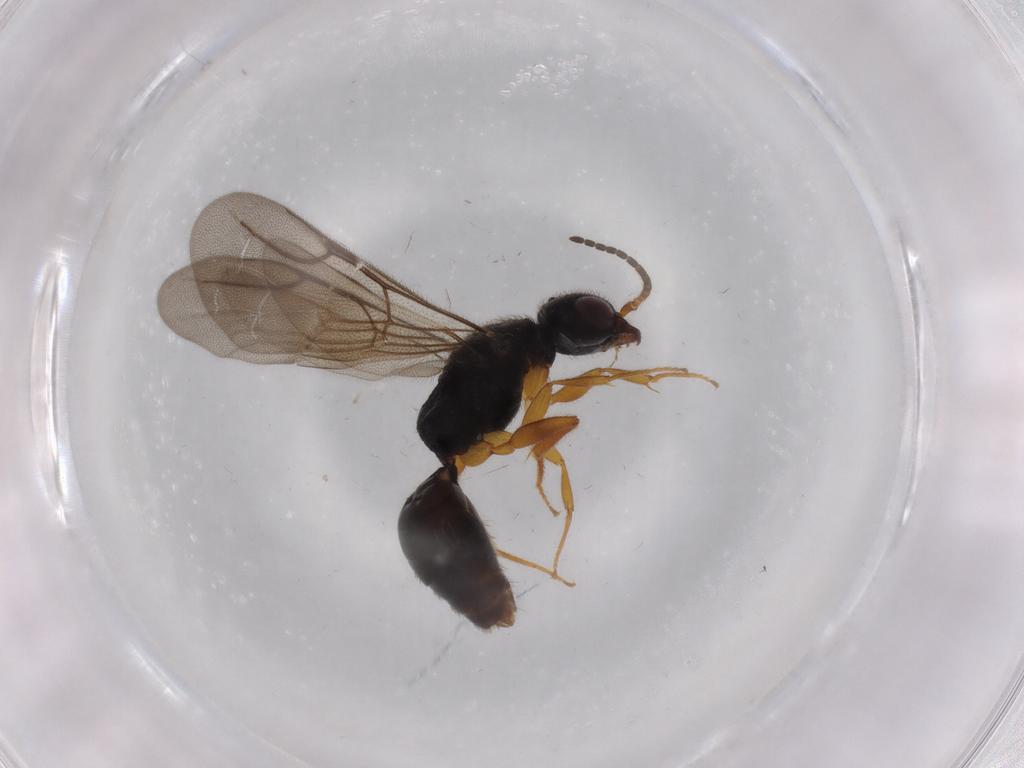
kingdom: Animalia
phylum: Arthropoda
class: Insecta
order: Hymenoptera
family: Bethylidae
